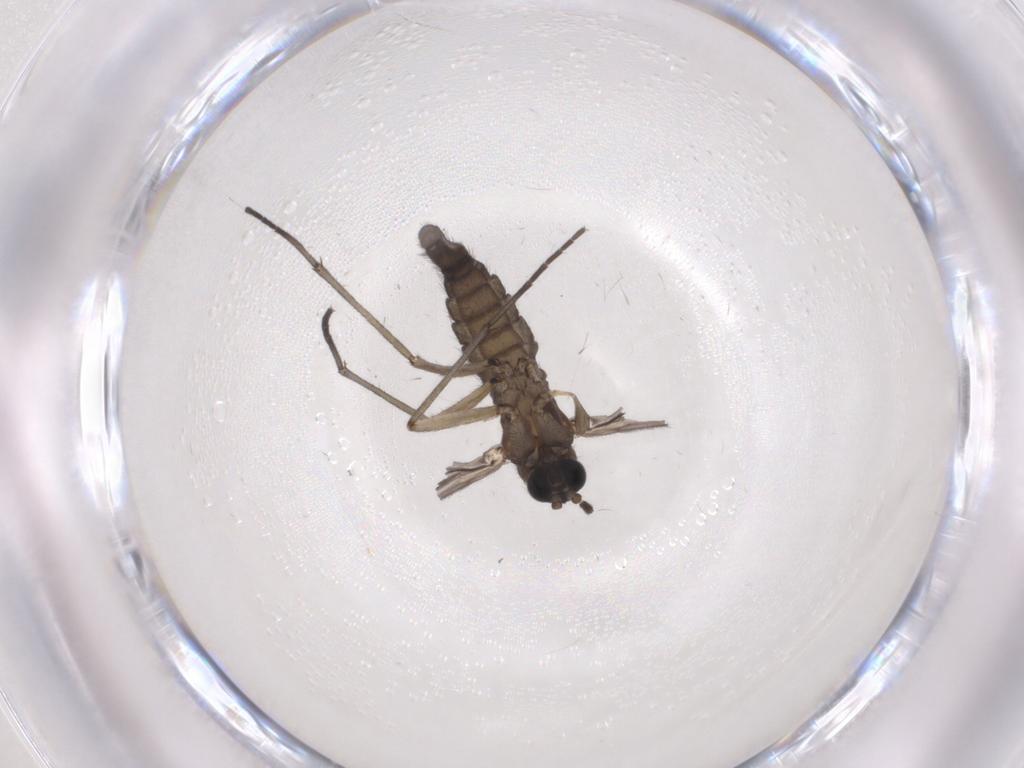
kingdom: Animalia
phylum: Arthropoda
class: Insecta
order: Diptera
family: Sciaridae
